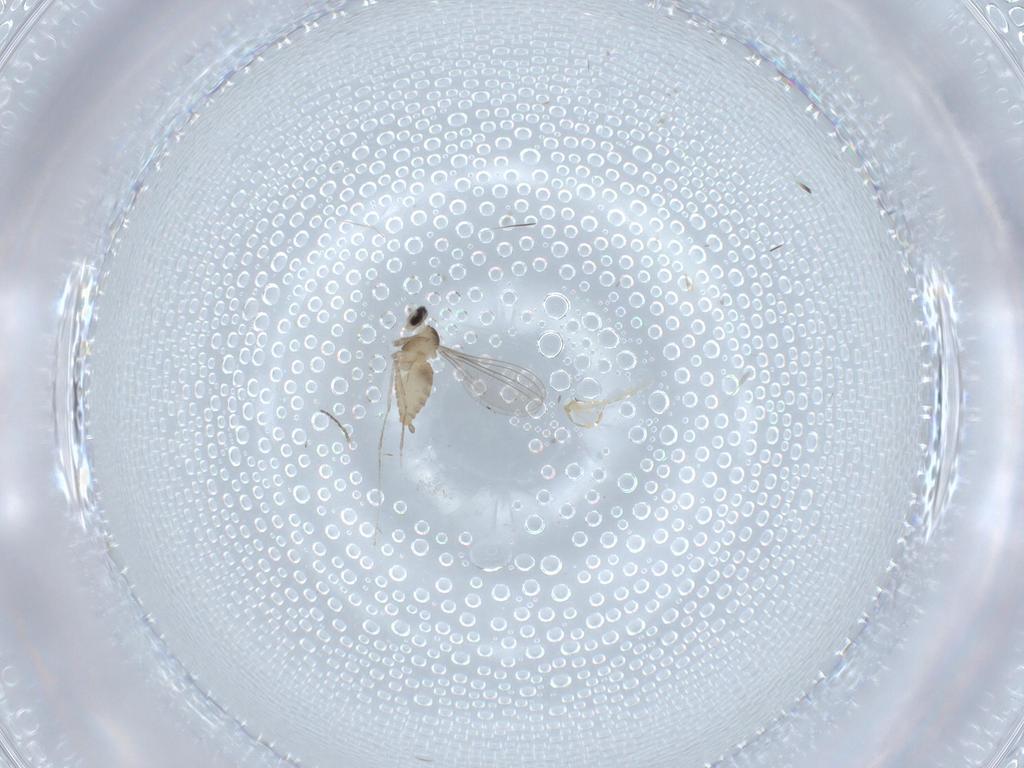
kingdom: Animalia
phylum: Arthropoda
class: Insecta
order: Diptera
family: Cecidomyiidae
